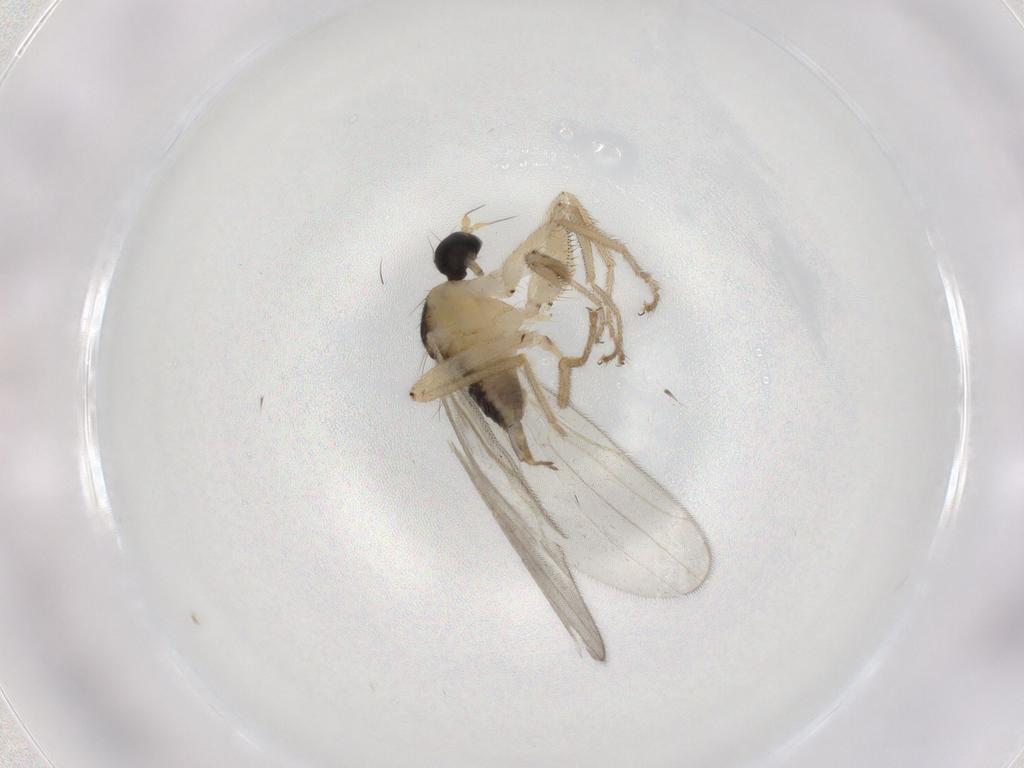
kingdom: Animalia
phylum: Arthropoda
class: Insecta
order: Diptera
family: Hybotidae
